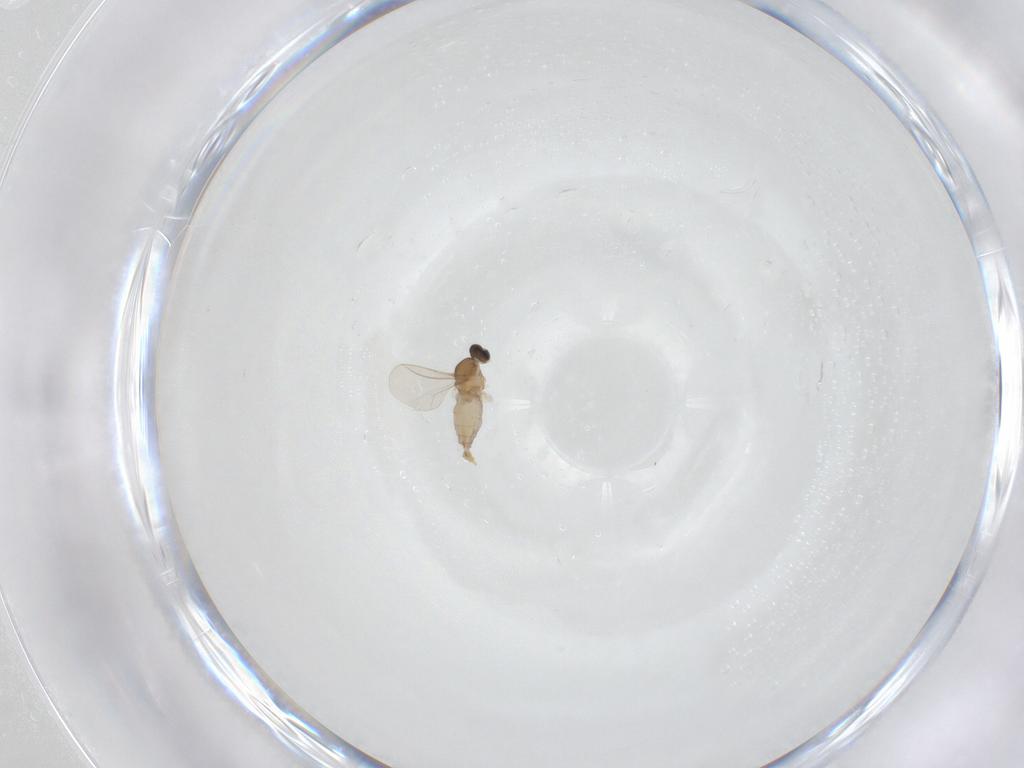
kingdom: Animalia
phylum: Arthropoda
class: Insecta
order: Diptera
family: Cecidomyiidae
